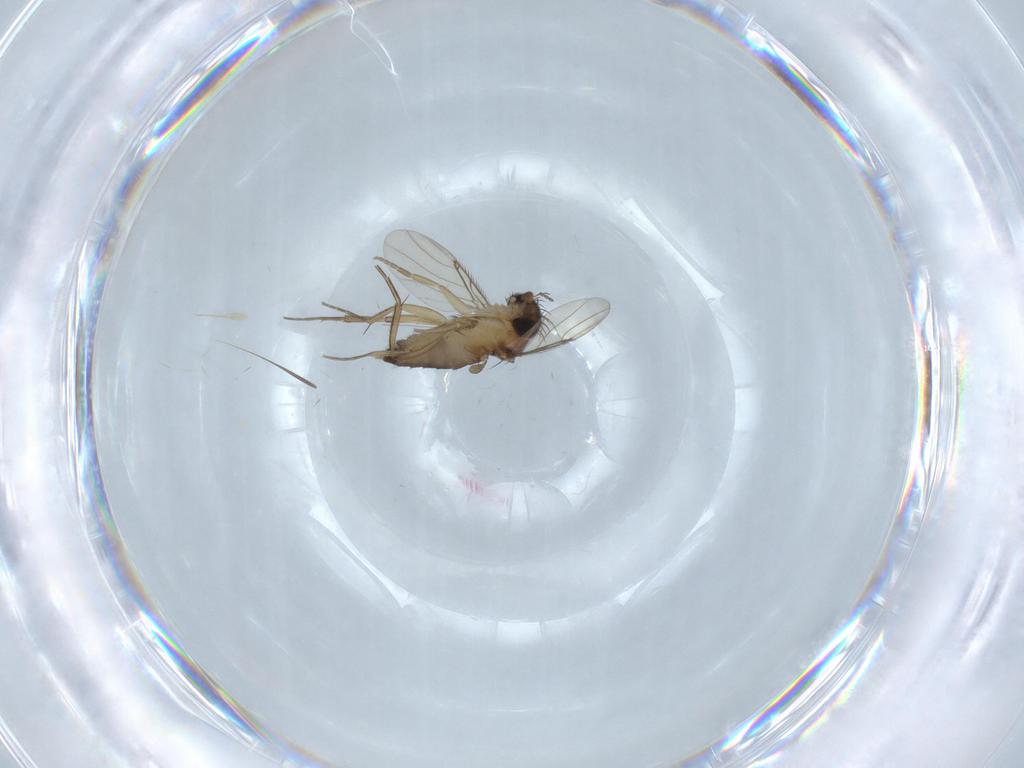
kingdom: Animalia
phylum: Arthropoda
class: Insecta
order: Diptera
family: Phoridae
